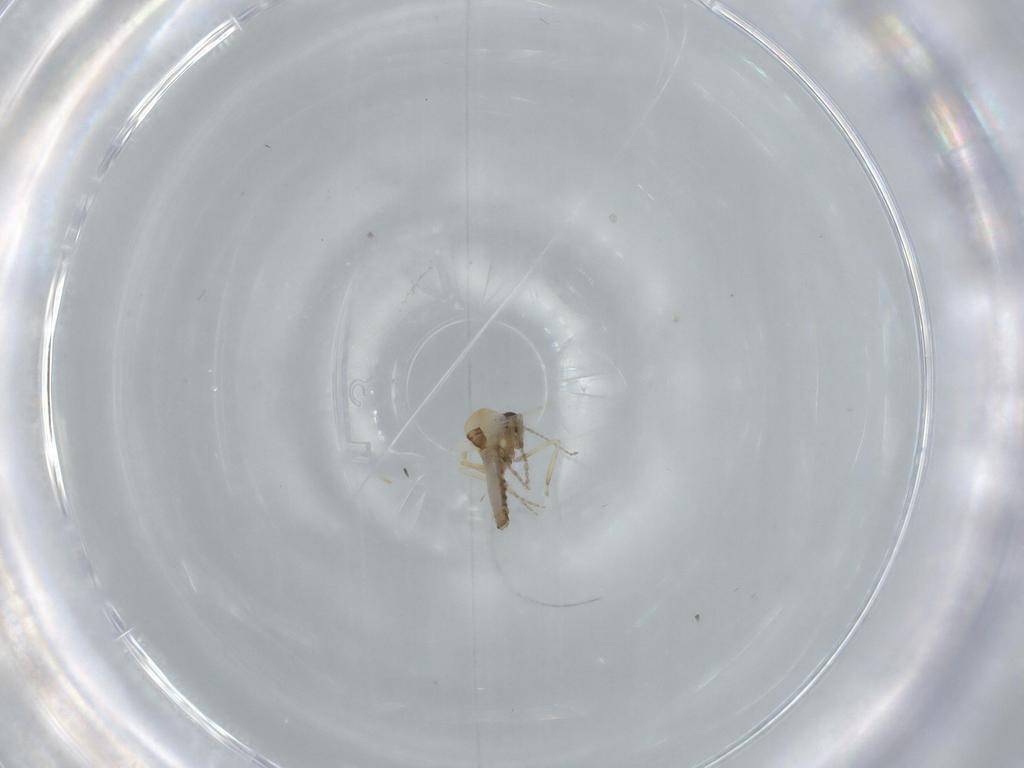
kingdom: Animalia
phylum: Arthropoda
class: Insecta
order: Diptera
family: Ceratopogonidae
